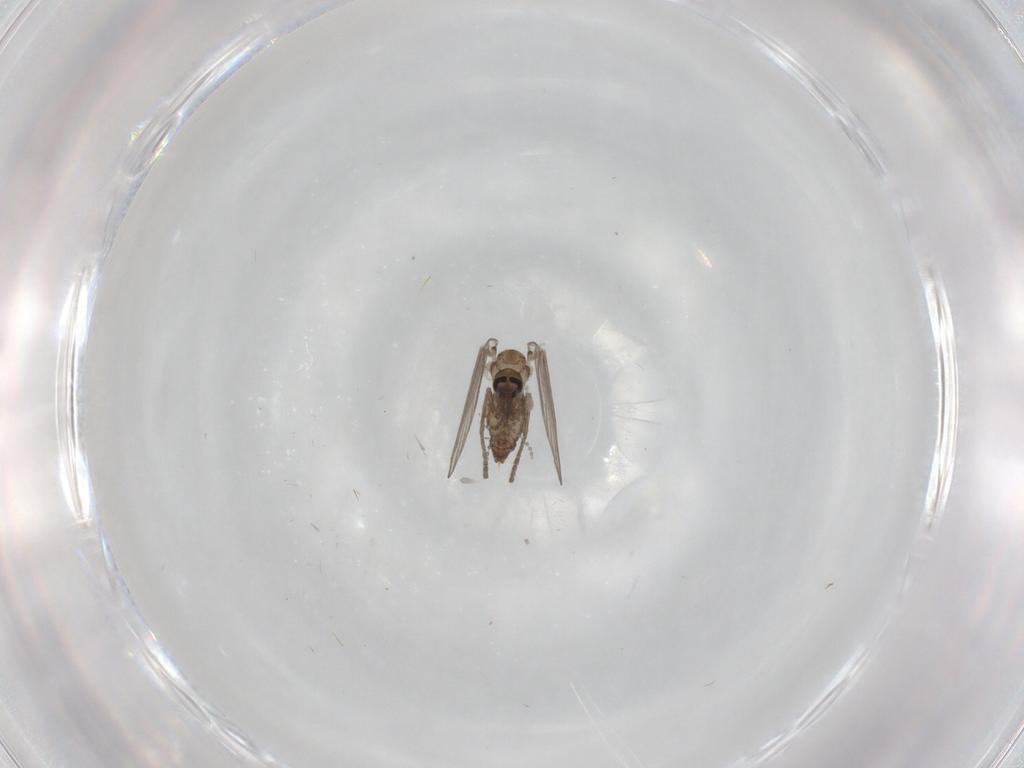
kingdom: Animalia
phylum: Arthropoda
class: Insecta
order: Diptera
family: Psychodidae
